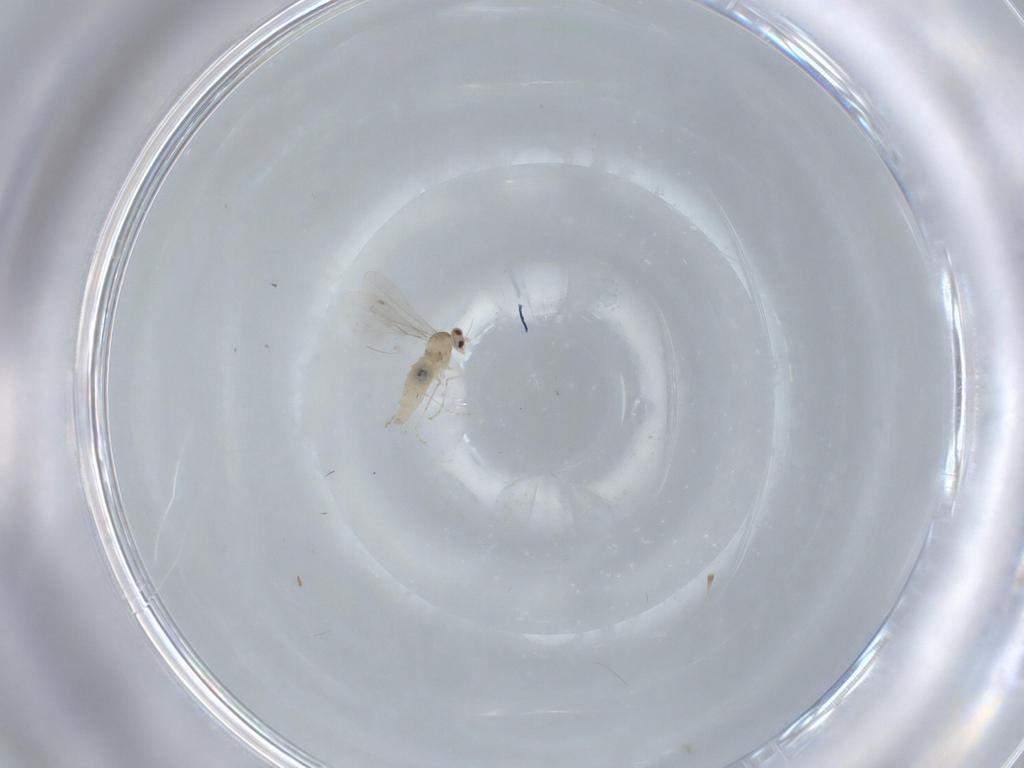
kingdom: Animalia
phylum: Arthropoda
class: Insecta
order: Diptera
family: Cecidomyiidae
